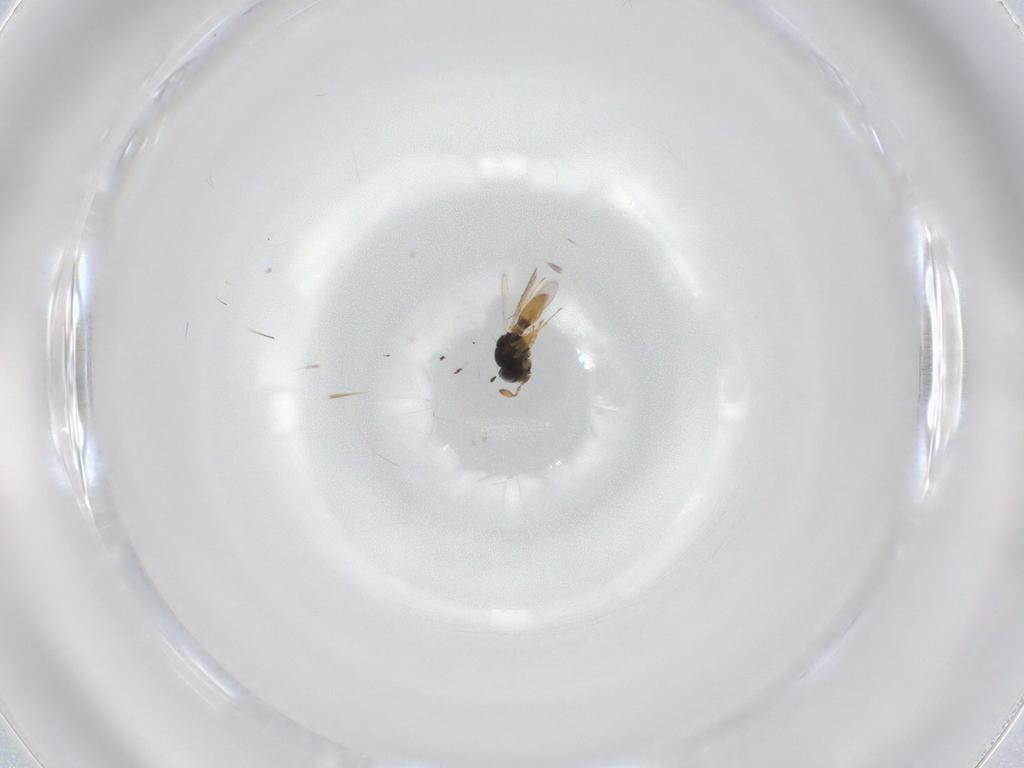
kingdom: Animalia
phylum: Arthropoda
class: Insecta
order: Hymenoptera
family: Scelionidae
